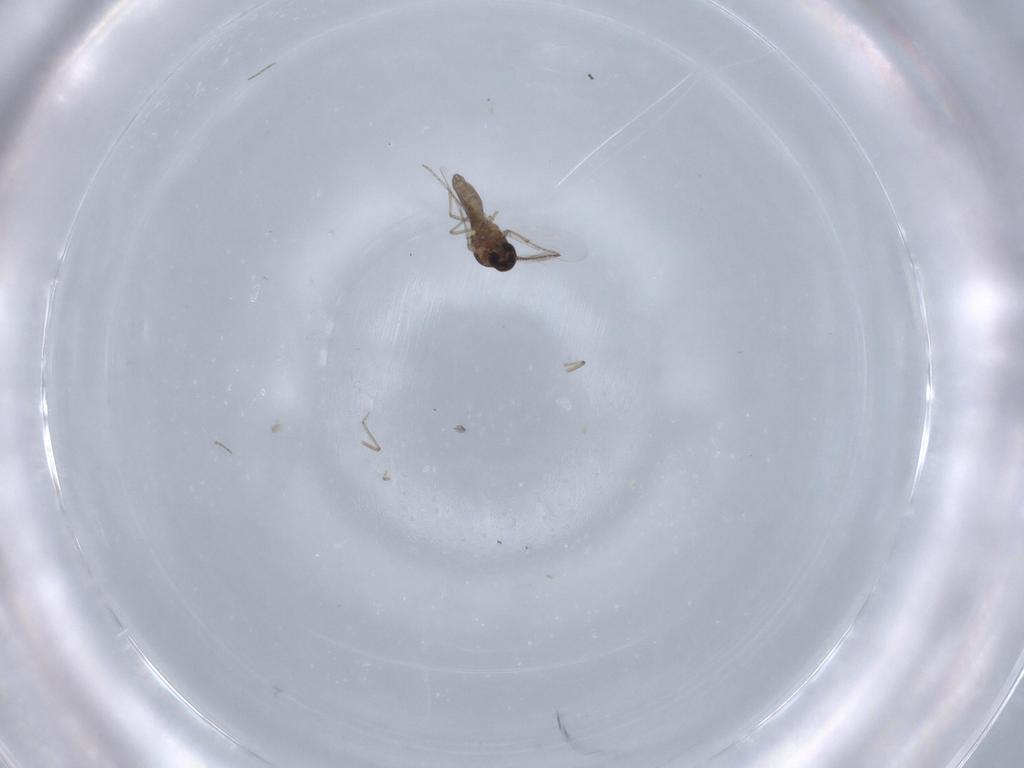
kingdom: Animalia
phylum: Arthropoda
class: Insecta
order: Diptera
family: Ceratopogonidae
